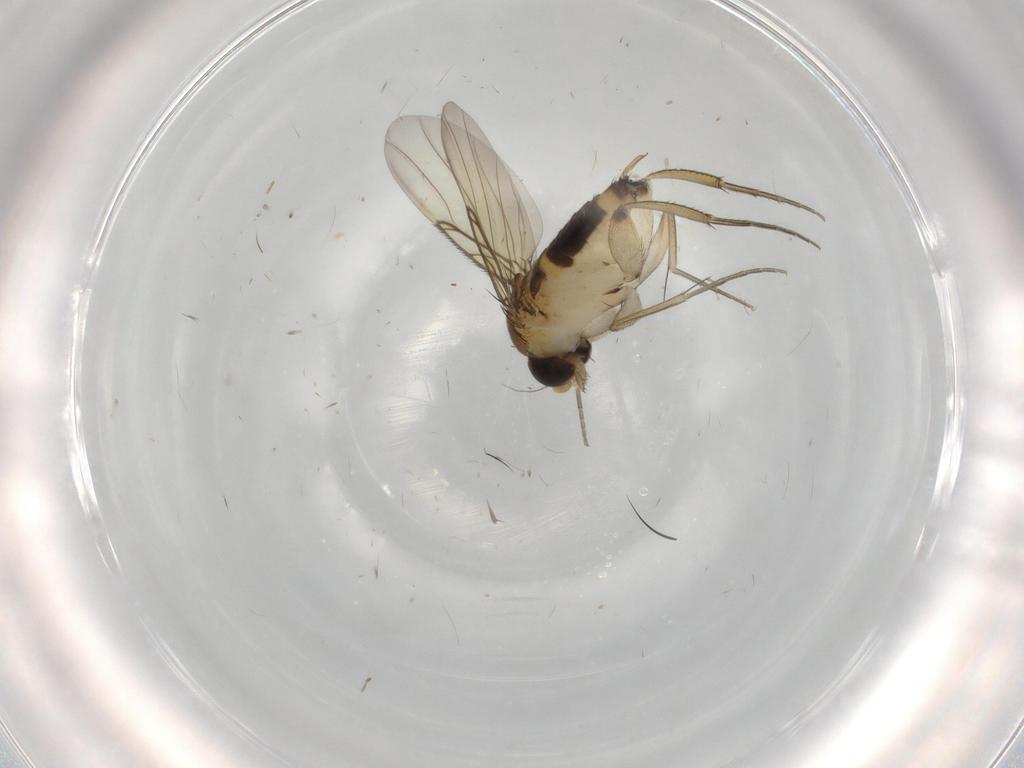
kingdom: Animalia
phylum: Arthropoda
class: Insecta
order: Diptera
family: Phoridae
